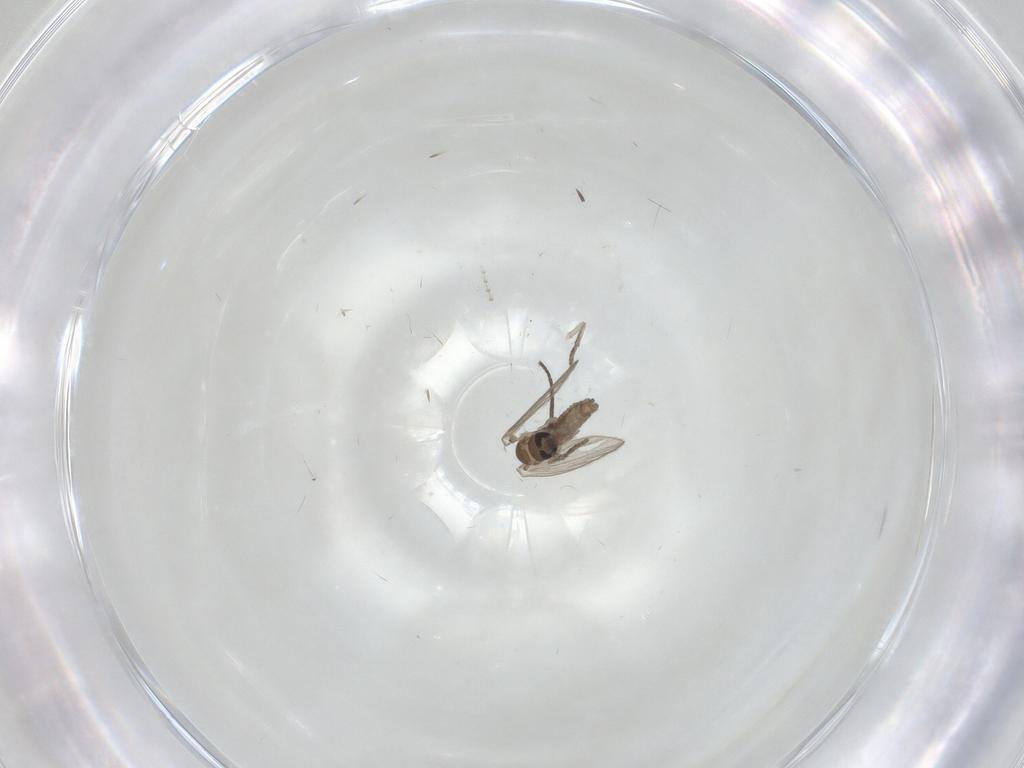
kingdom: Animalia
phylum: Arthropoda
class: Insecta
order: Diptera
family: Psychodidae
